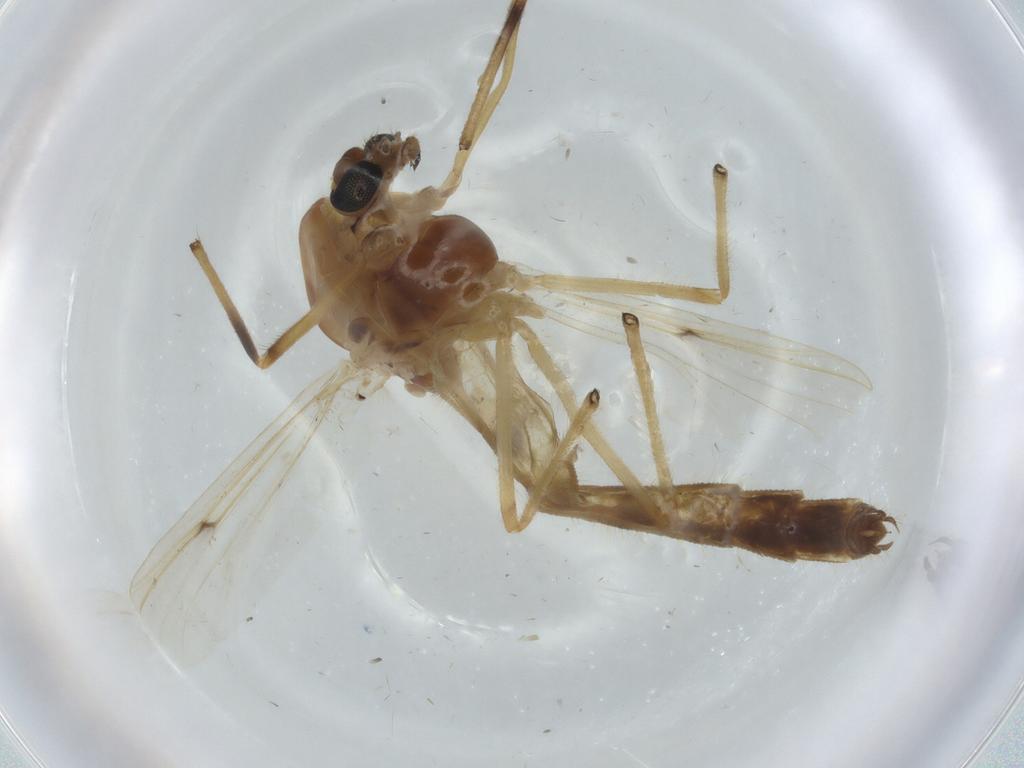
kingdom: Animalia
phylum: Arthropoda
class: Insecta
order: Diptera
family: Chironomidae
